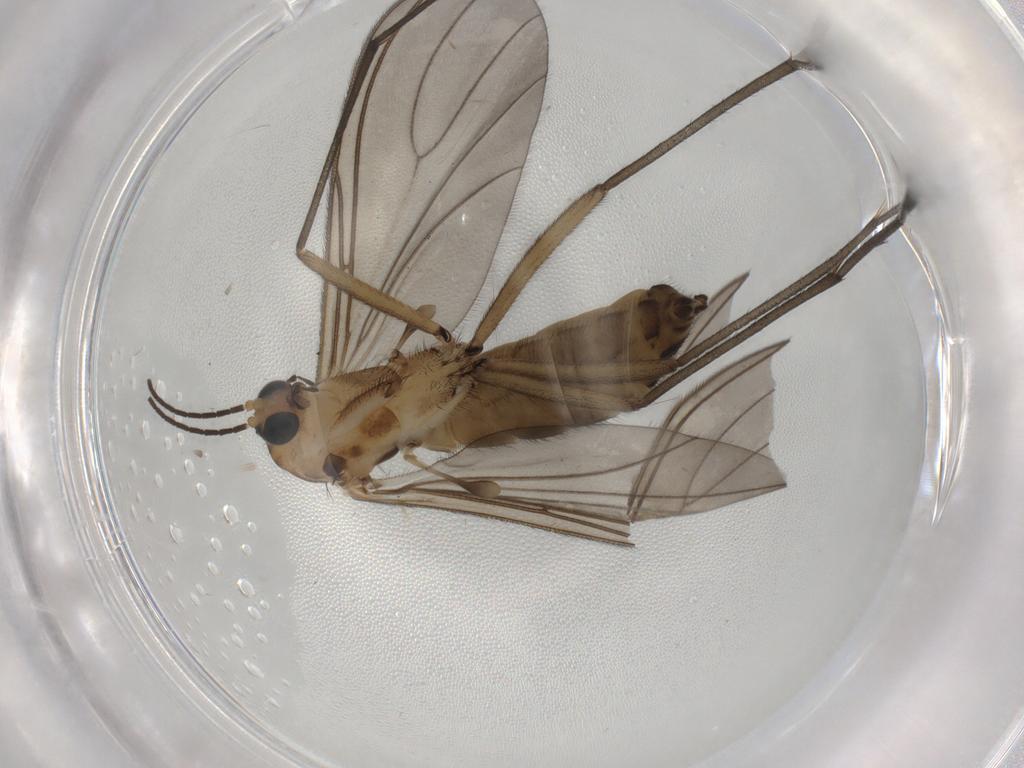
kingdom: Animalia
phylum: Arthropoda
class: Insecta
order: Diptera
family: Sciaridae
